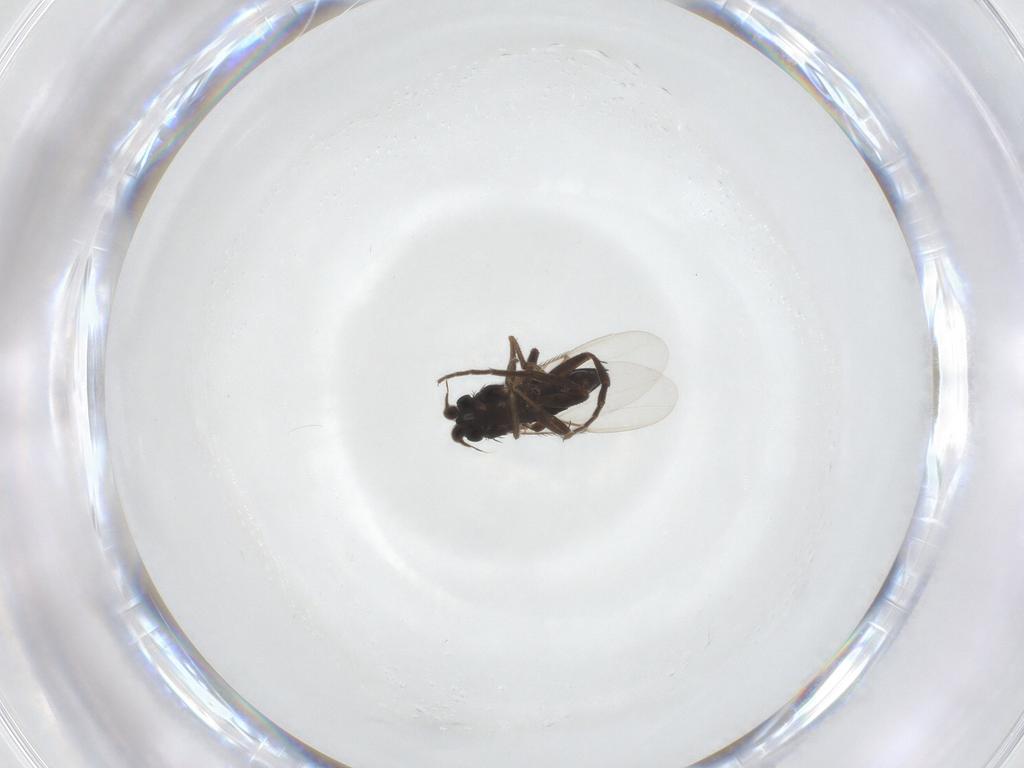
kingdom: Animalia
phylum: Arthropoda
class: Insecta
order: Diptera
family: Phoridae
